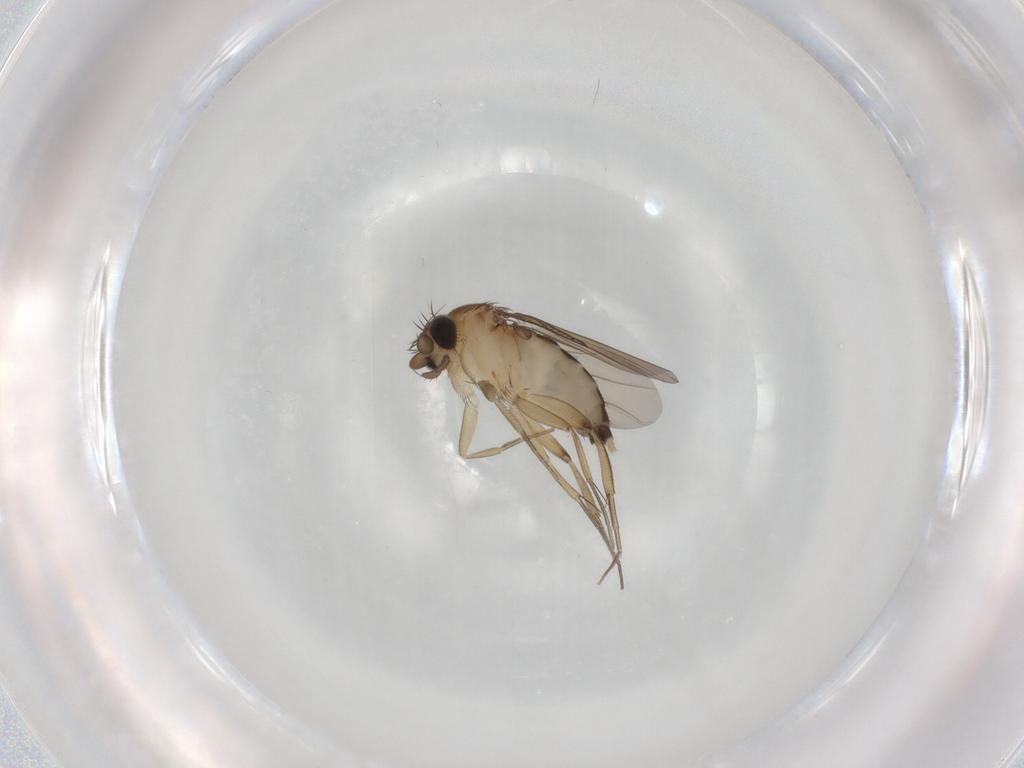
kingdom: Animalia
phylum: Arthropoda
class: Insecta
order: Diptera
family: Phoridae
